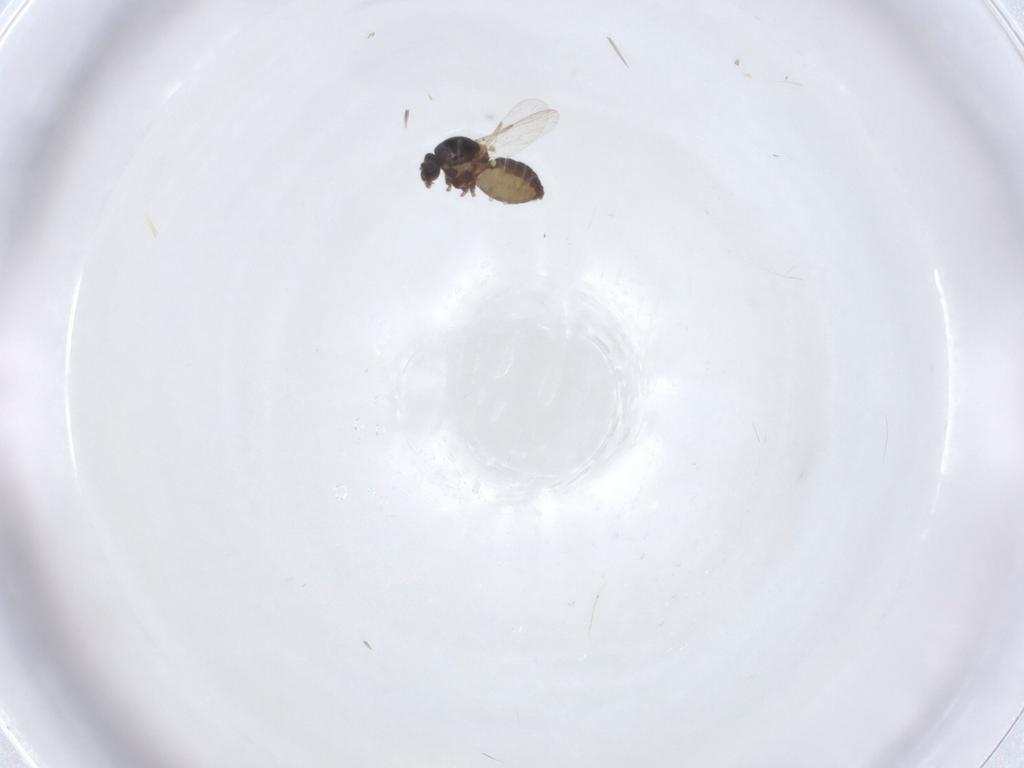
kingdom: Animalia
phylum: Arthropoda
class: Insecta
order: Diptera
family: Ceratopogonidae
